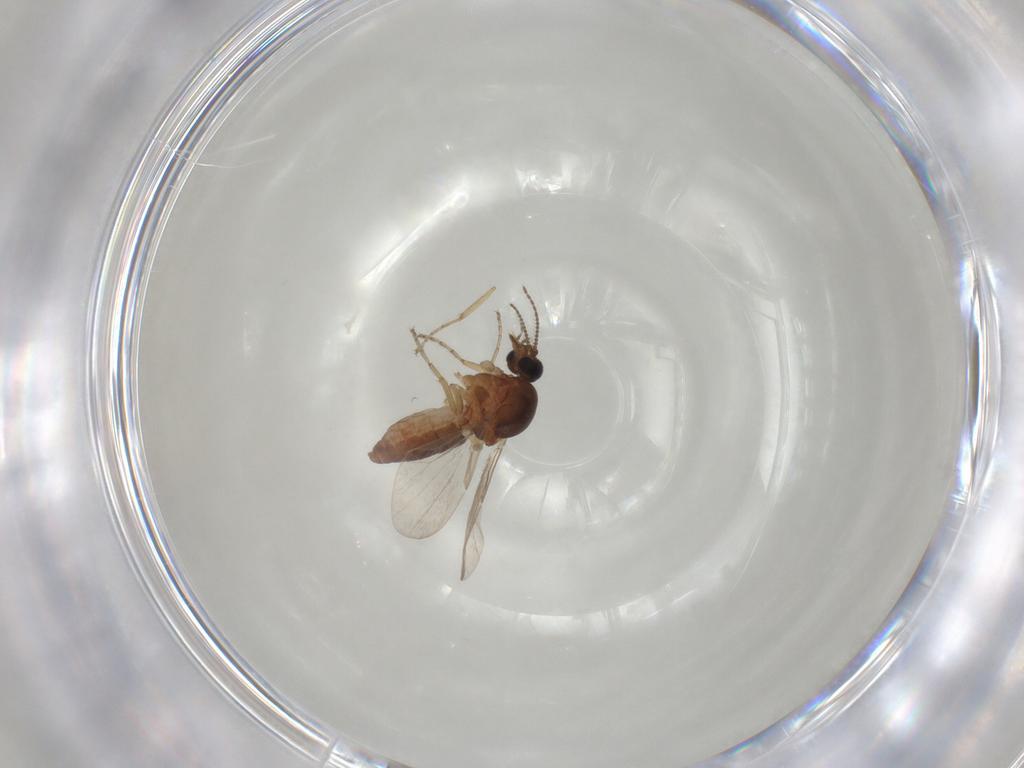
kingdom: Animalia
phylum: Arthropoda
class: Insecta
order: Diptera
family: Ceratopogonidae
